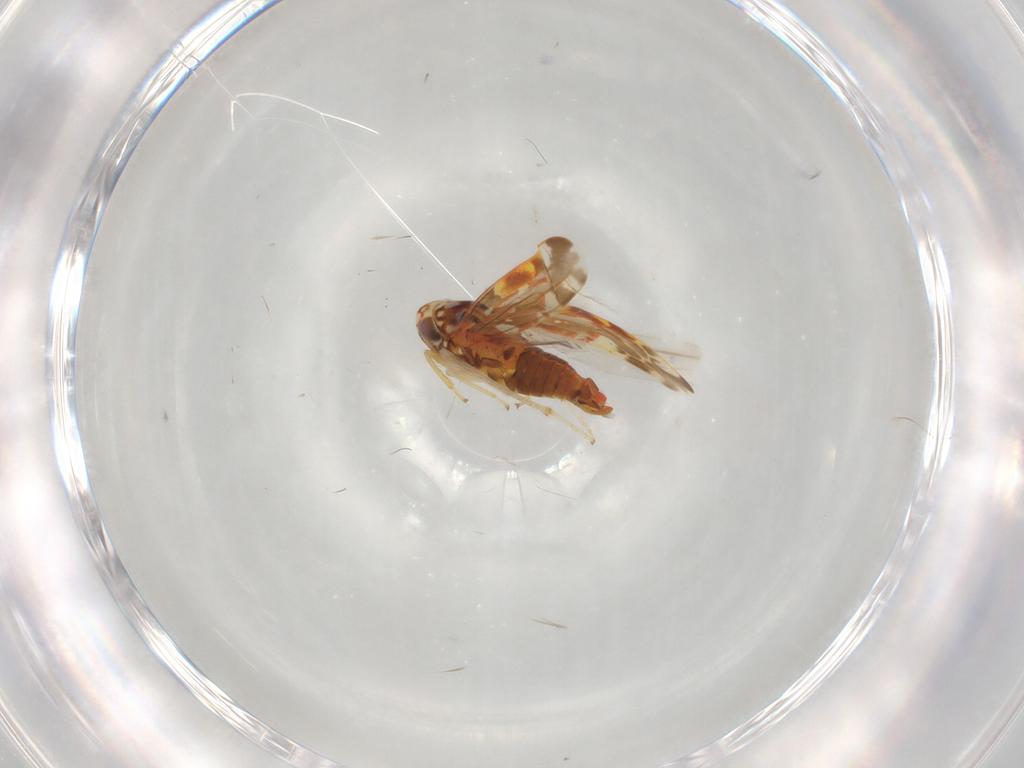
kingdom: Animalia
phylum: Arthropoda
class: Insecta
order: Hemiptera
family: Cicadellidae
